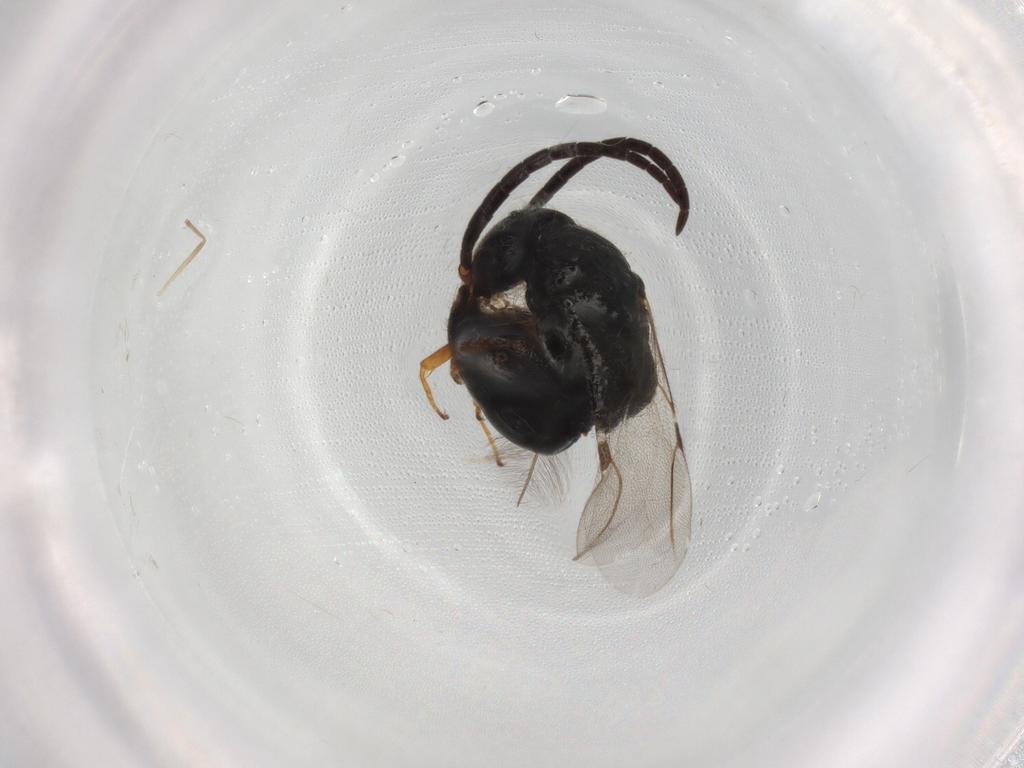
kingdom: Animalia
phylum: Arthropoda
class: Insecta
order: Hymenoptera
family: Bethylidae
